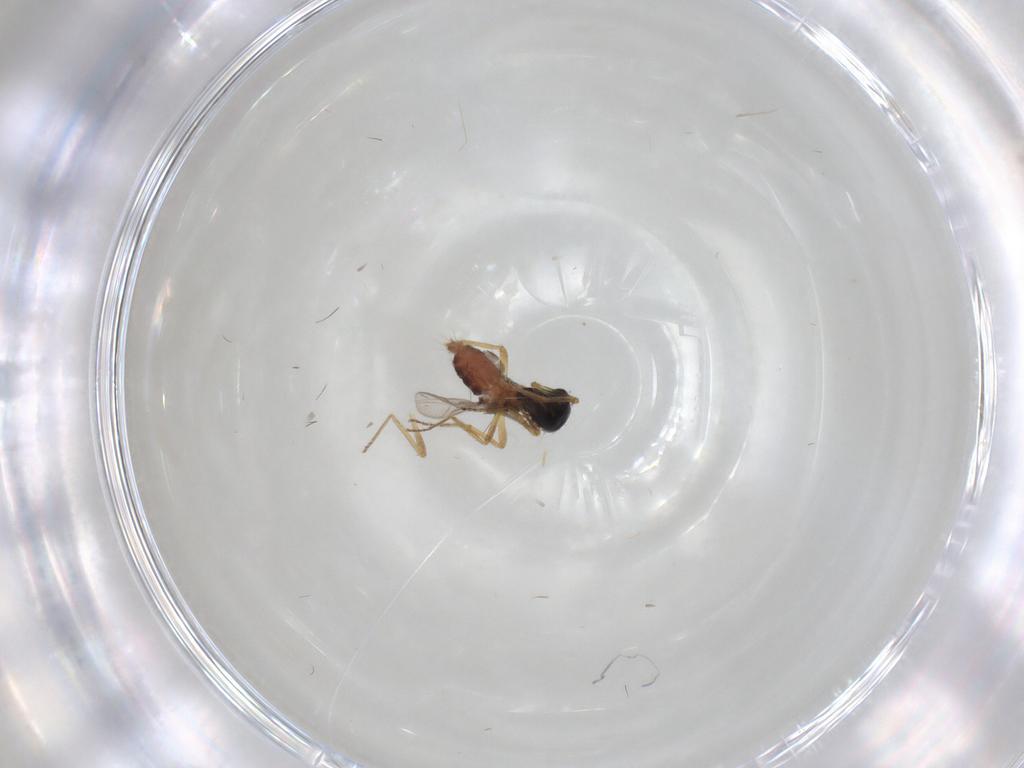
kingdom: Animalia
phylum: Arthropoda
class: Insecta
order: Diptera
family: Ceratopogonidae
